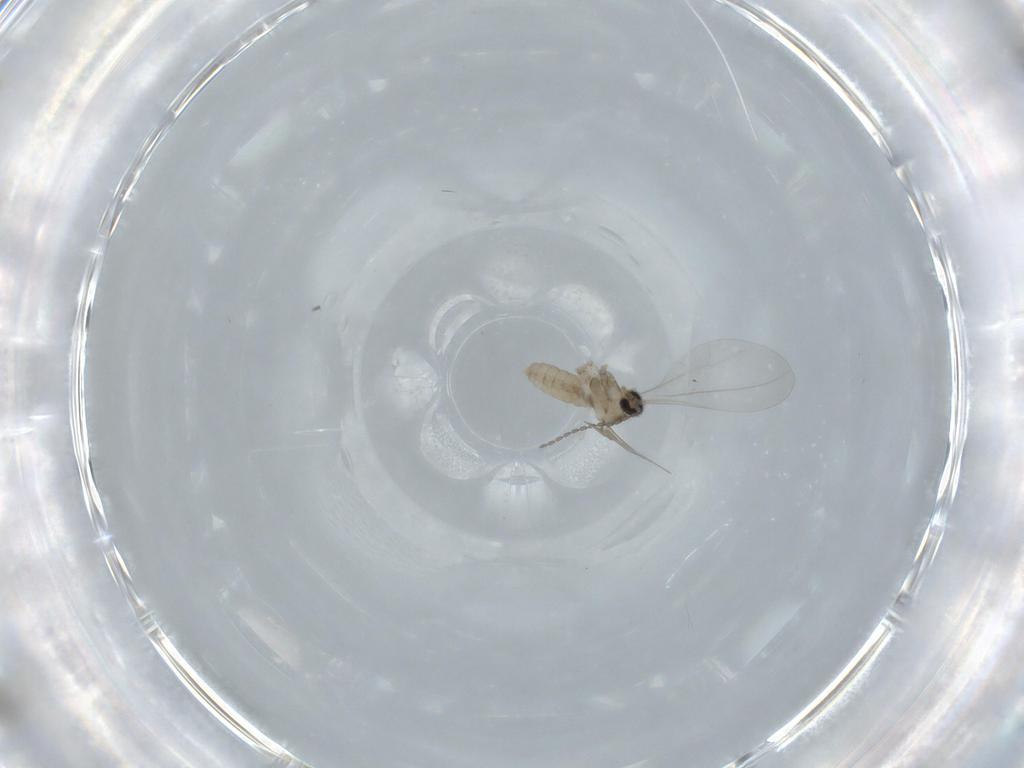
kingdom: Animalia
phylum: Arthropoda
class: Insecta
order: Diptera
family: Cecidomyiidae
